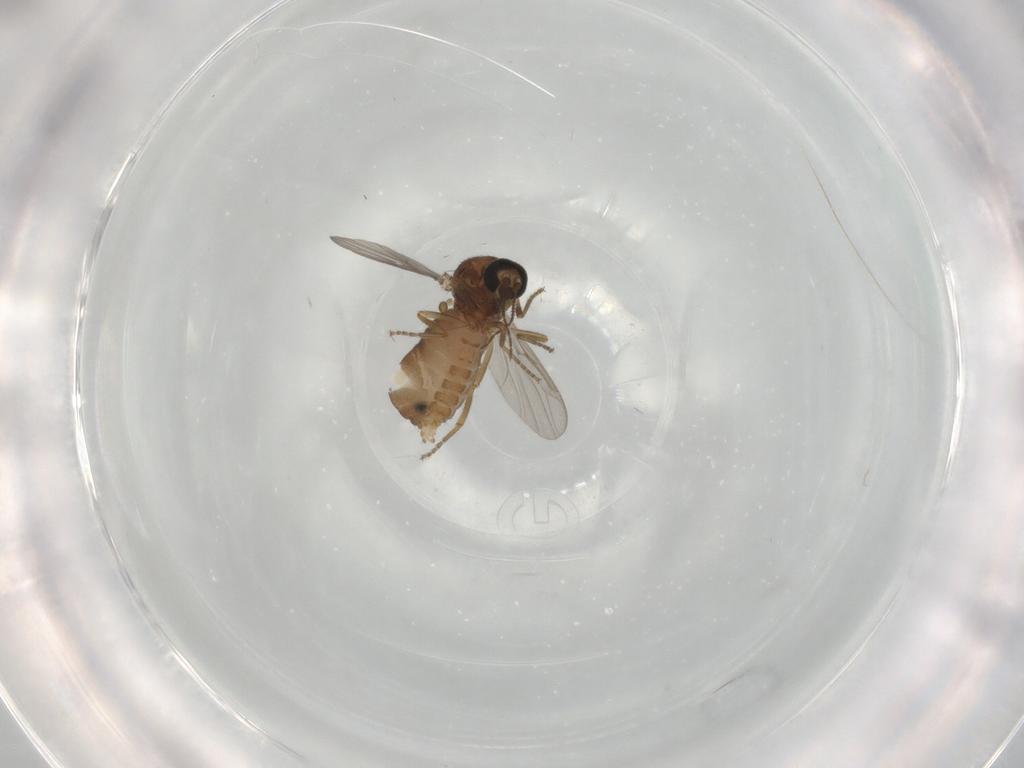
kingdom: Animalia
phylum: Arthropoda
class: Insecta
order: Diptera
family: Ceratopogonidae
